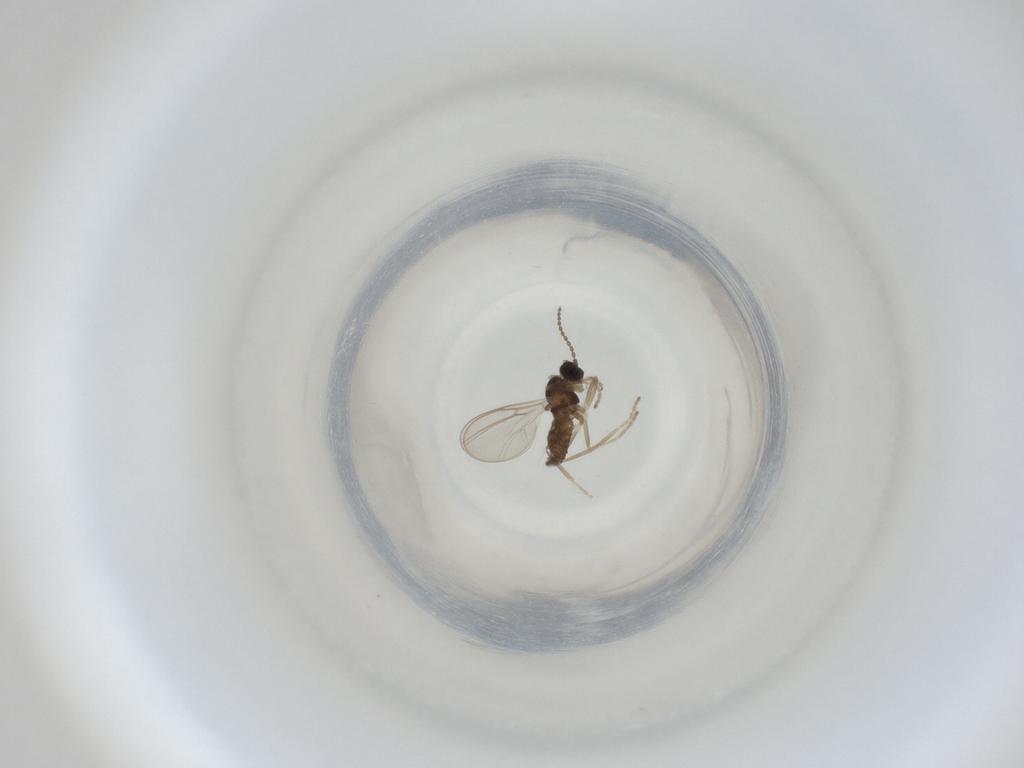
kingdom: Animalia
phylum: Arthropoda
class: Insecta
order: Diptera
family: Cecidomyiidae
